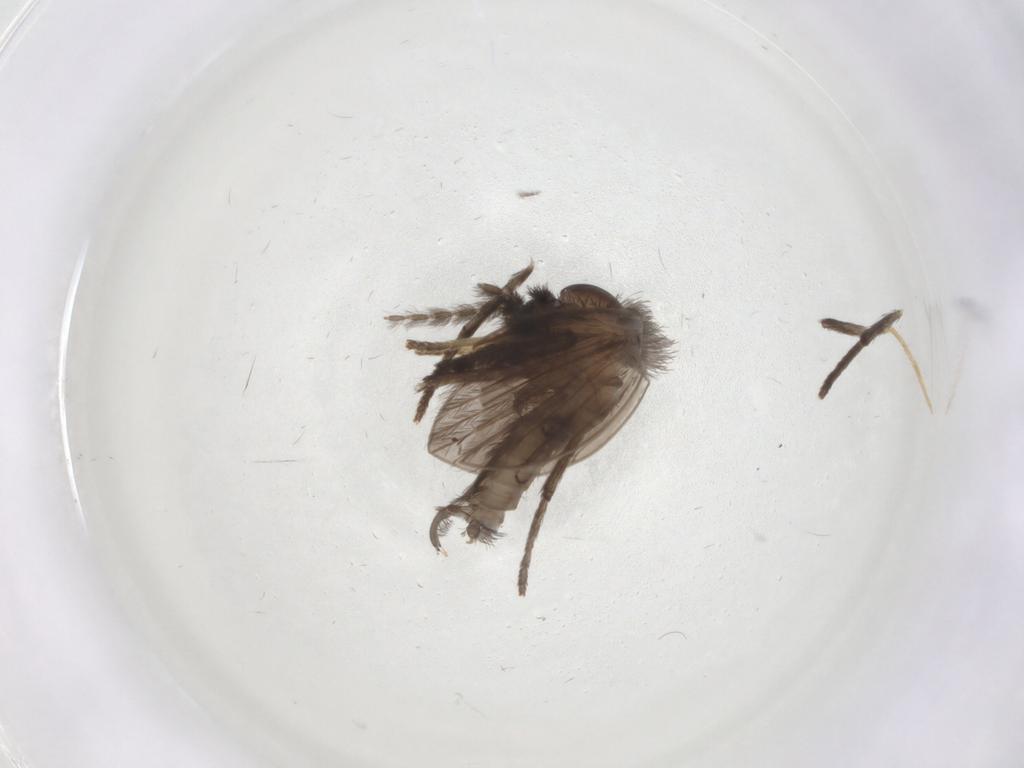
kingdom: Animalia
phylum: Arthropoda
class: Insecta
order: Diptera
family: Psychodidae
